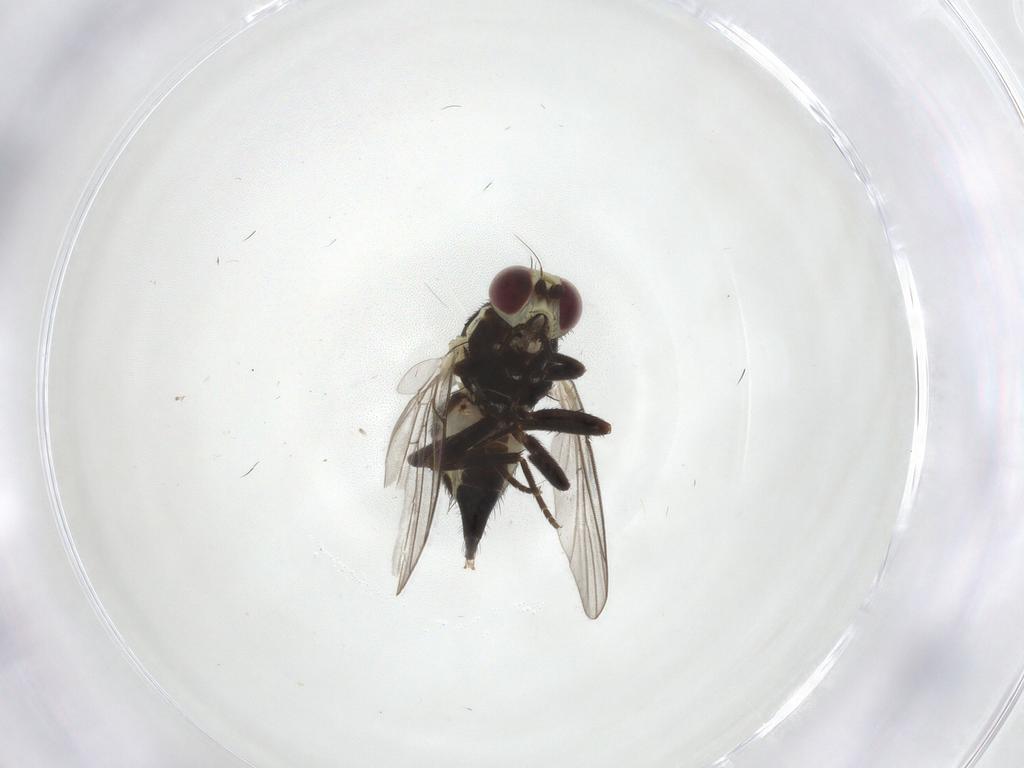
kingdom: Animalia
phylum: Arthropoda
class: Insecta
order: Diptera
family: Agromyzidae
